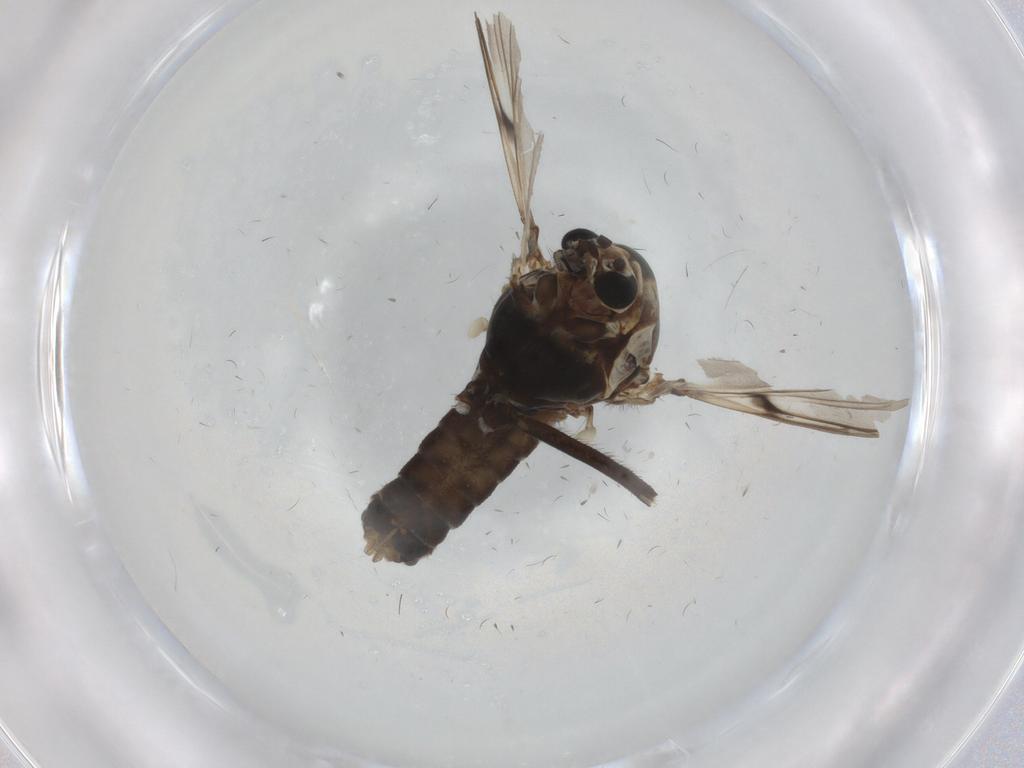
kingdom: Animalia
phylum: Arthropoda
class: Insecta
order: Diptera
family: Chironomidae
